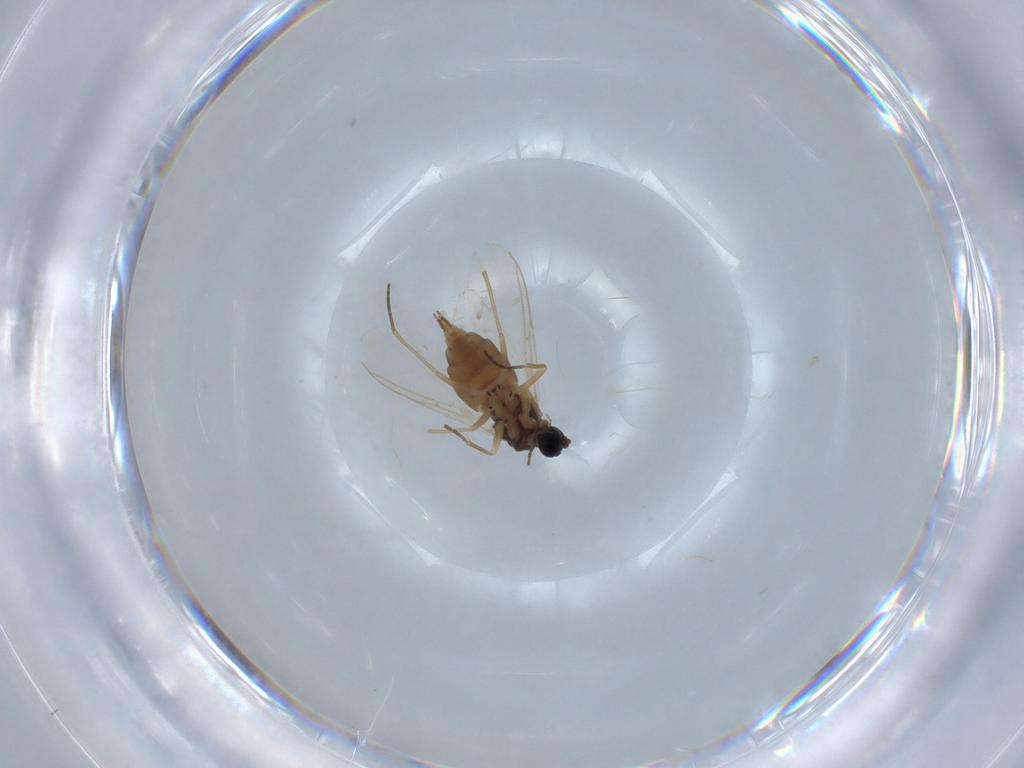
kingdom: Animalia
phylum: Arthropoda
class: Insecta
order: Diptera
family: Sciaridae
